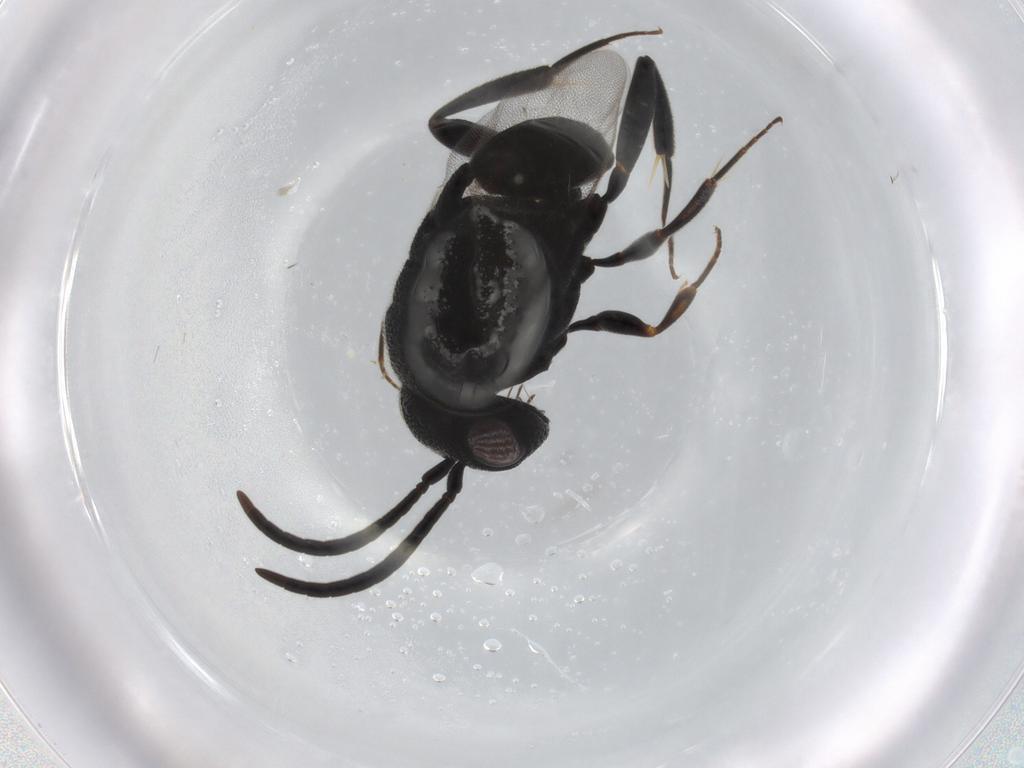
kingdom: Animalia
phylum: Arthropoda
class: Insecta
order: Hymenoptera
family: Evaniidae
